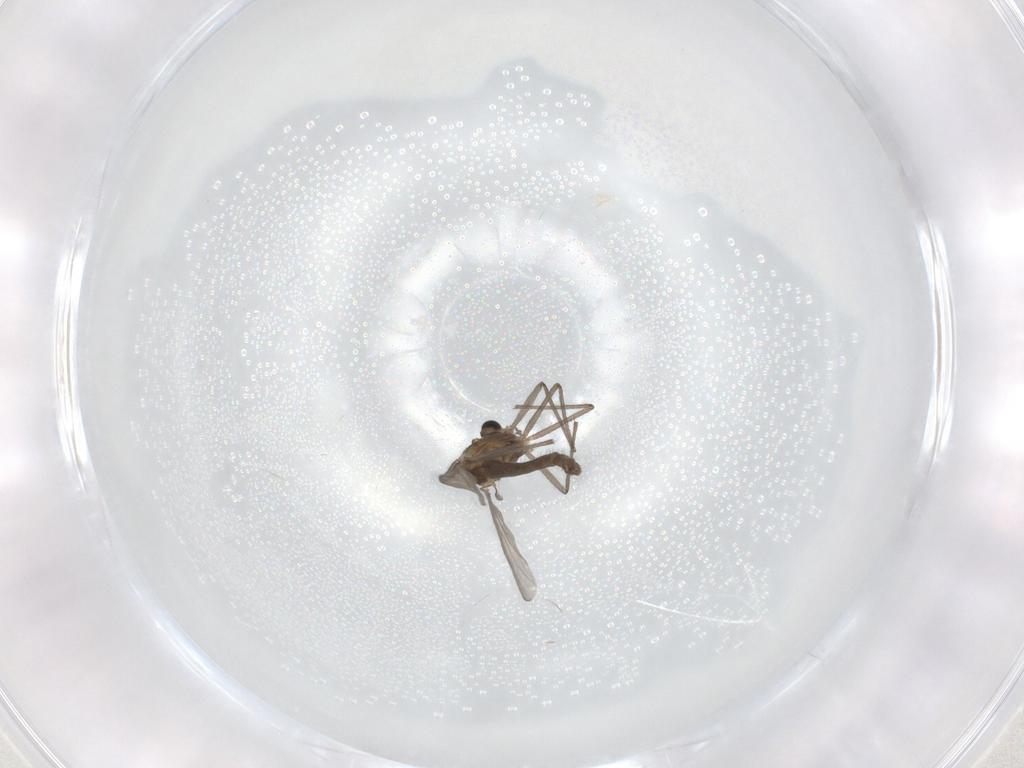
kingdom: Animalia
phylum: Arthropoda
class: Insecta
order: Diptera
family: Chironomidae
